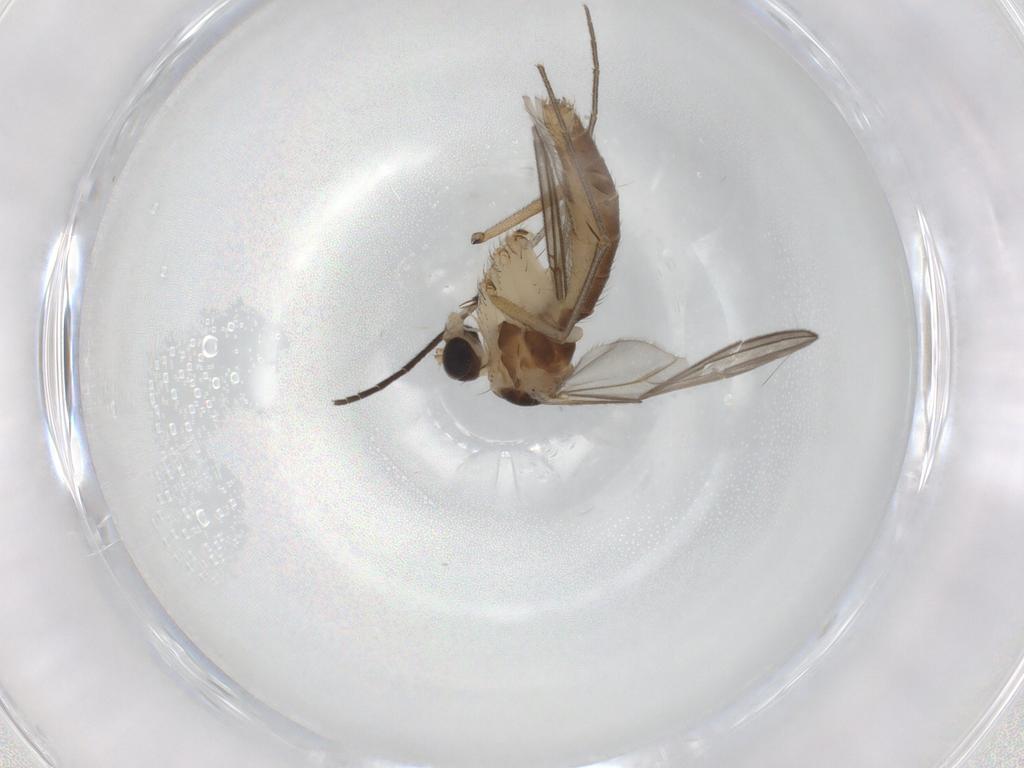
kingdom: Animalia
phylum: Arthropoda
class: Insecta
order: Diptera
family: Mycetophilidae
